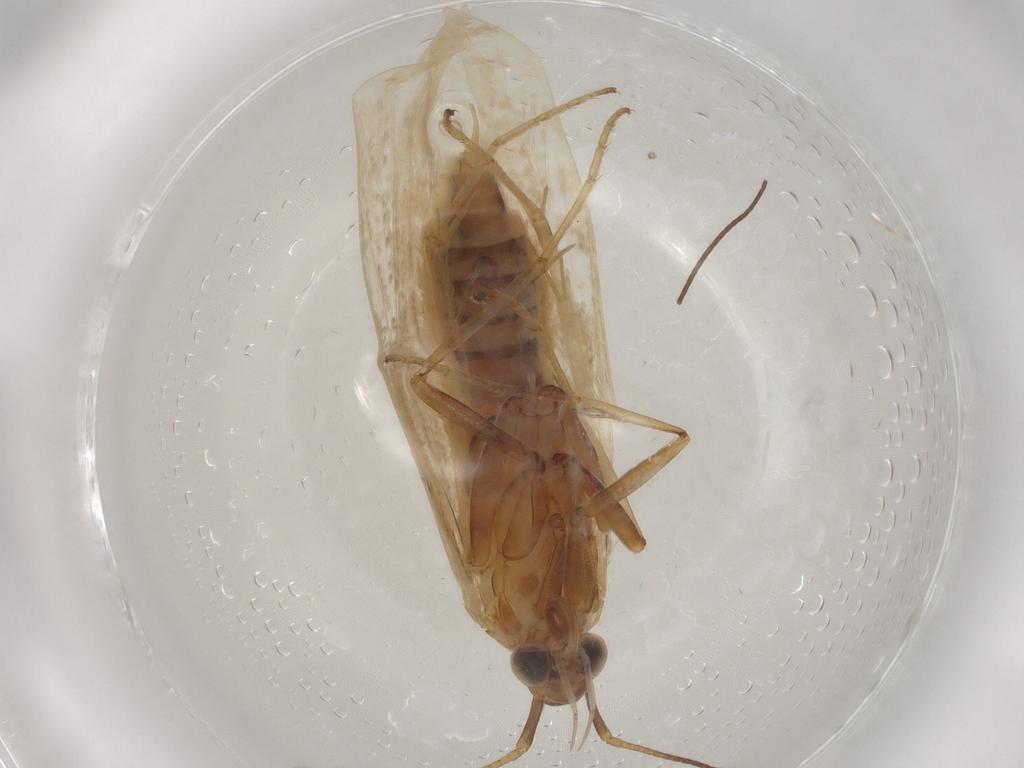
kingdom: Animalia
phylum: Arthropoda
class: Insecta
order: Lepidoptera
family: Coleophoridae
